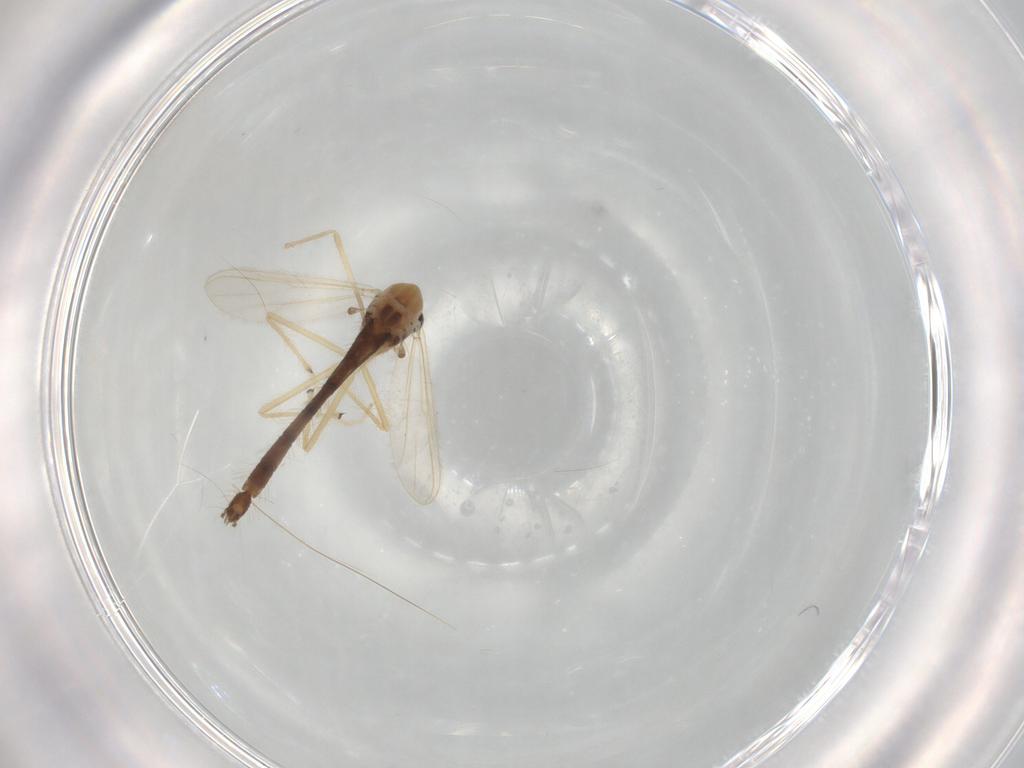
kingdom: Animalia
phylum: Arthropoda
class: Insecta
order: Diptera
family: Chironomidae
